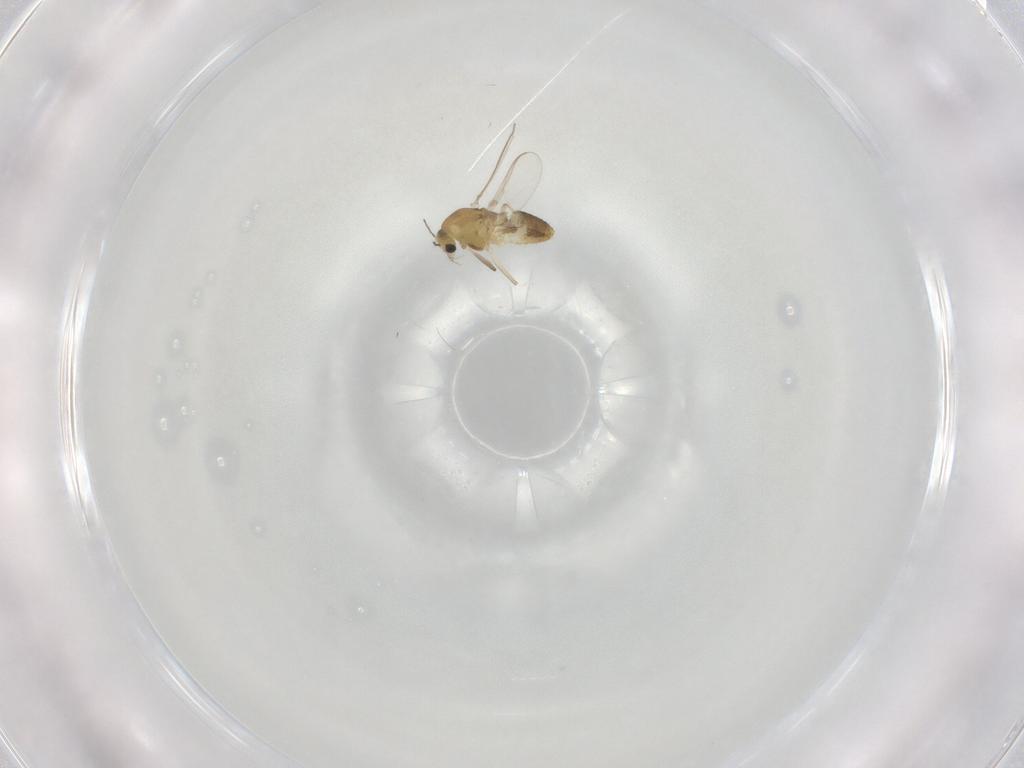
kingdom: Animalia
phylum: Arthropoda
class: Insecta
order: Diptera
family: Chironomidae
